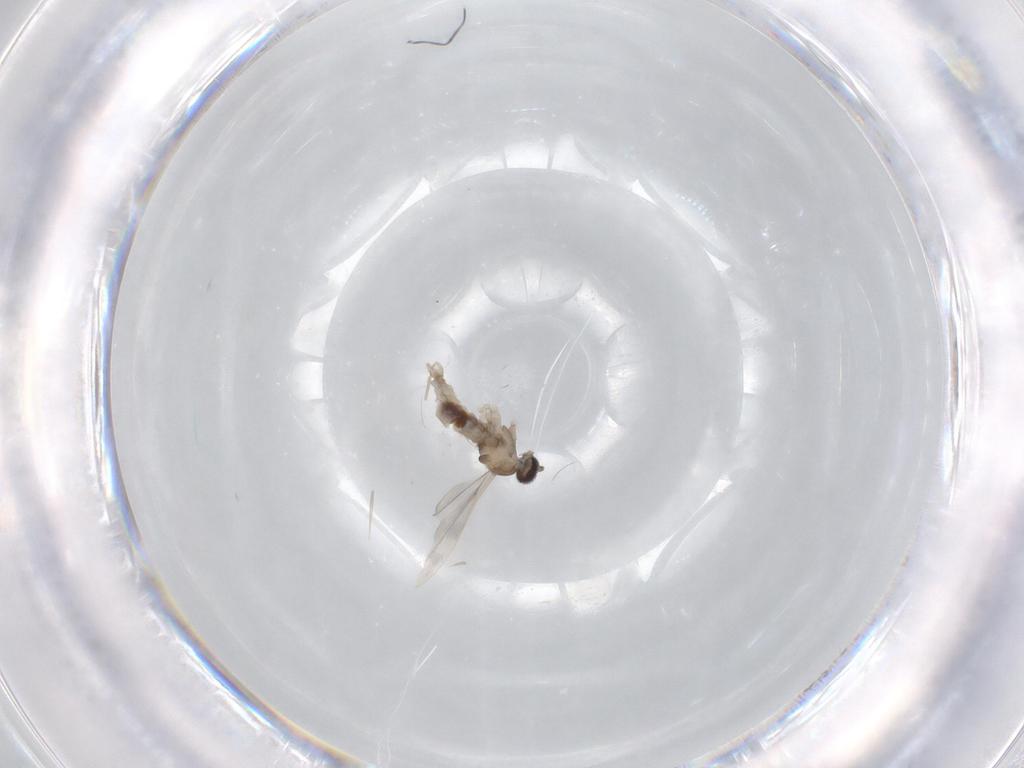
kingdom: Animalia
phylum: Arthropoda
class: Insecta
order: Diptera
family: Cecidomyiidae
